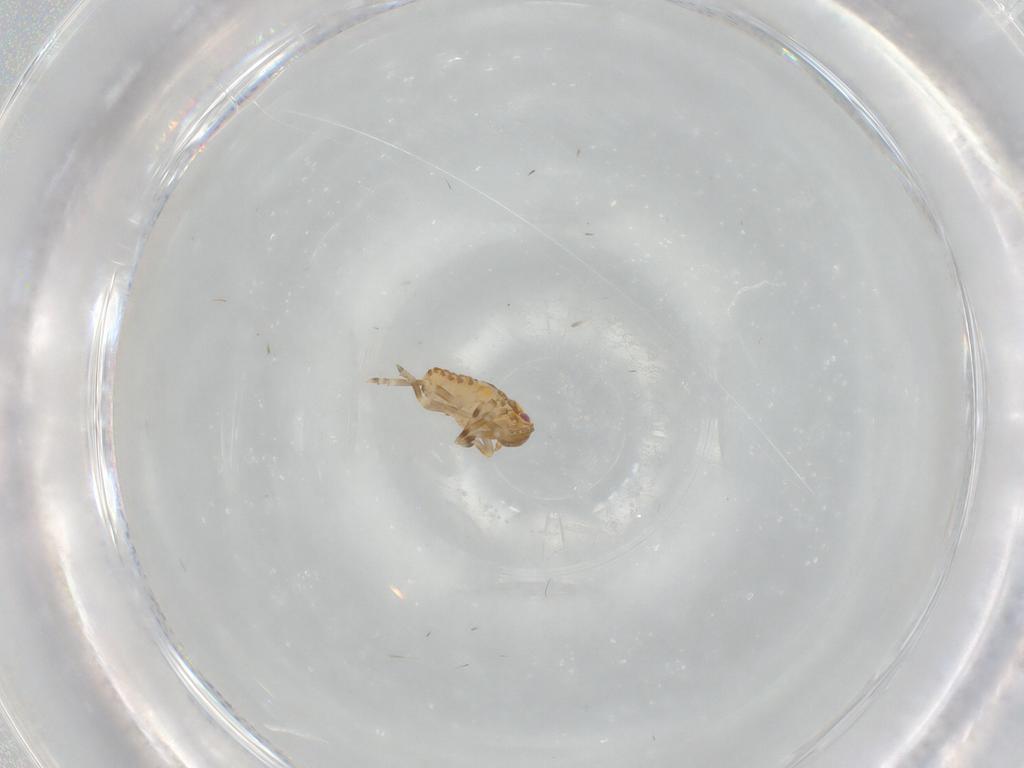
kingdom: Animalia
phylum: Arthropoda
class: Insecta
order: Hemiptera
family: Flatidae
